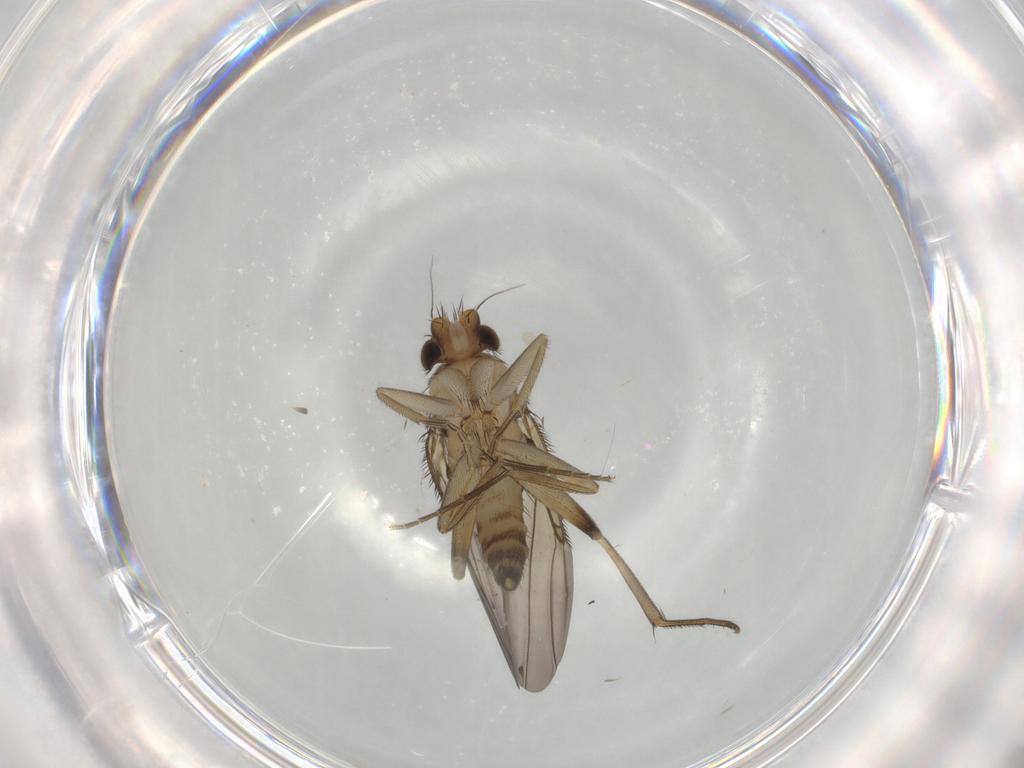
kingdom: Animalia
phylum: Arthropoda
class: Insecta
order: Diptera
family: Phoridae
